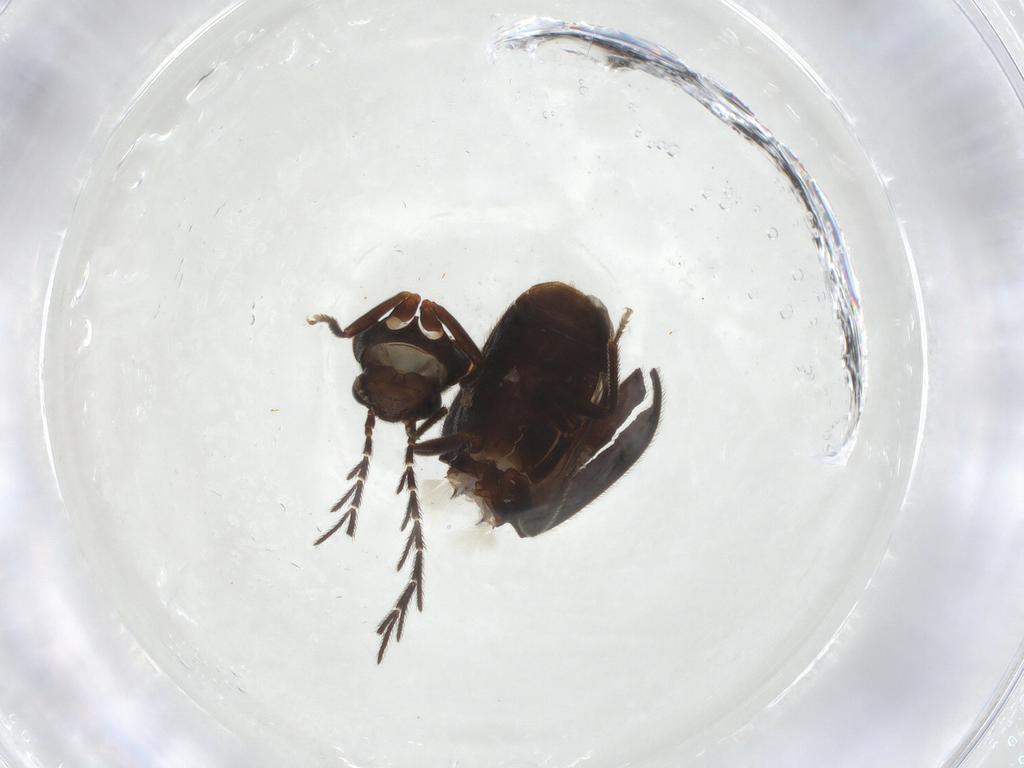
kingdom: Animalia
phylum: Arthropoda
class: Insecta
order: Coleoptera
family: Ptilodactylidae
